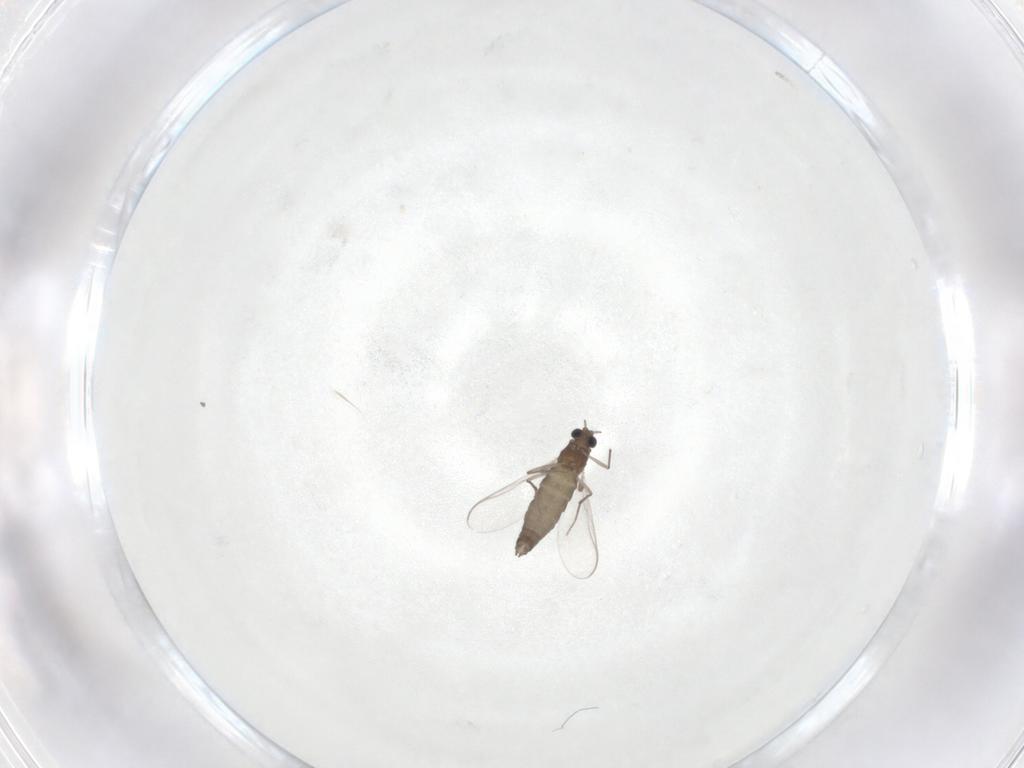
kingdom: Animalia
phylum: Arthropoda
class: Insecta
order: Diptera
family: Chironomidae
